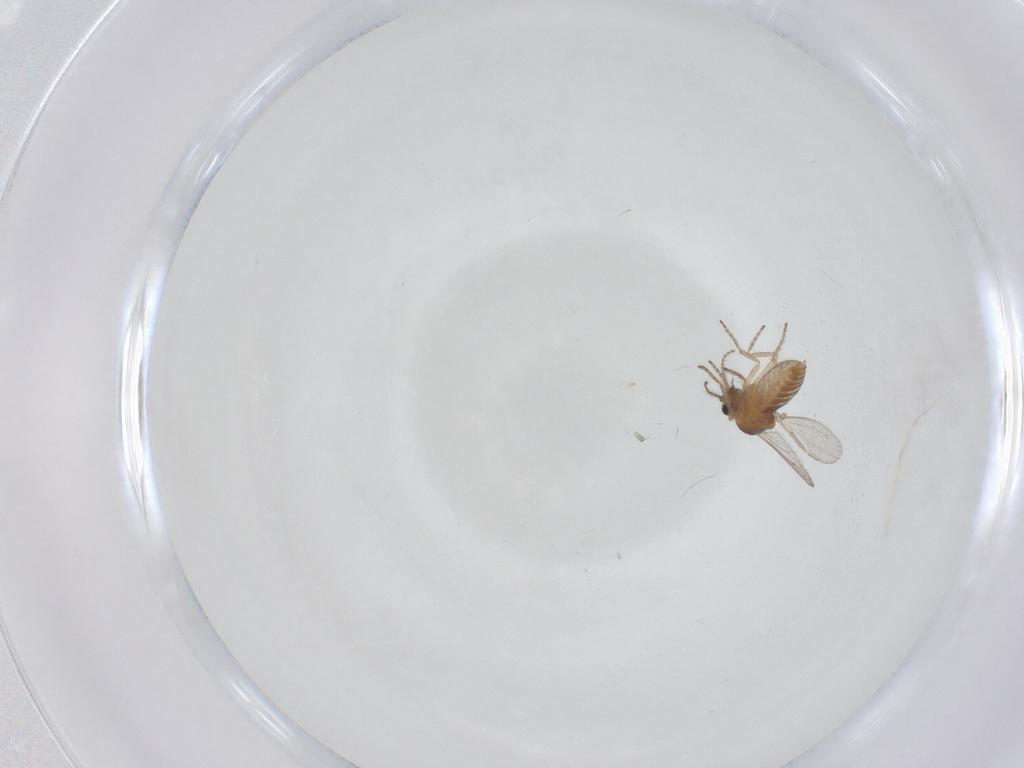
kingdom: Animalia
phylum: Arthropoda
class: Insecta
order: Diptera
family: Ceratopogonidae
